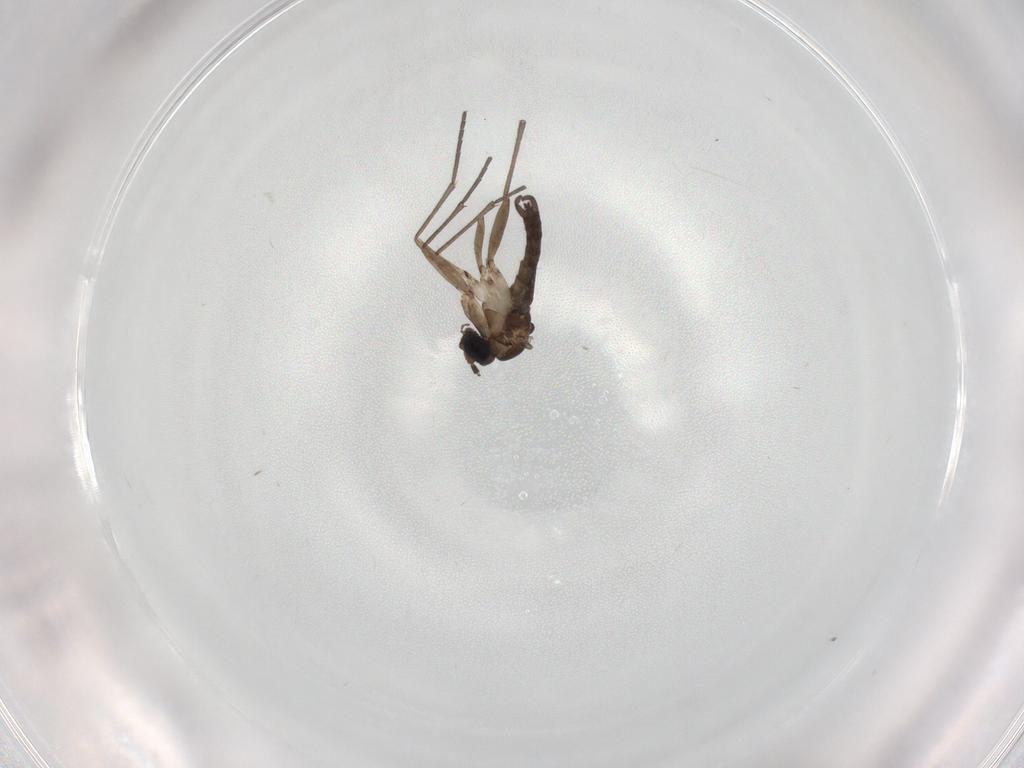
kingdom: Animalia
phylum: Arthropoda
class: Insecta
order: Diptera
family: Sciaridae
